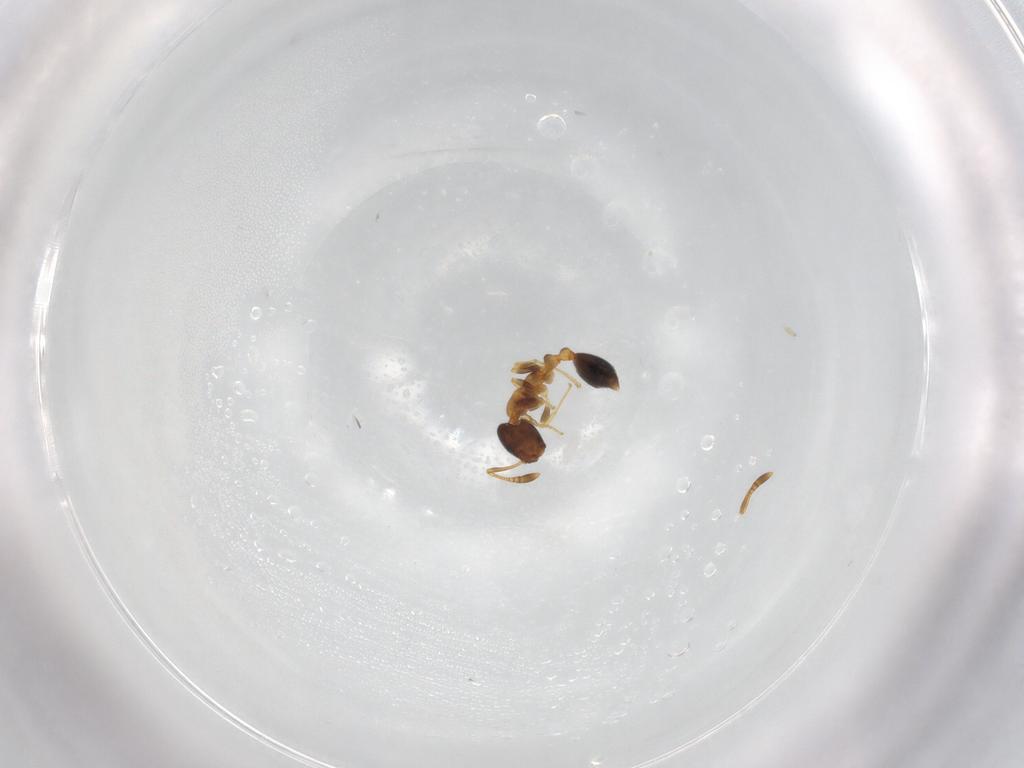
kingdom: Animalia
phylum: Arthropoda
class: Insecta
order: Hymenoptera
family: Formicidae
